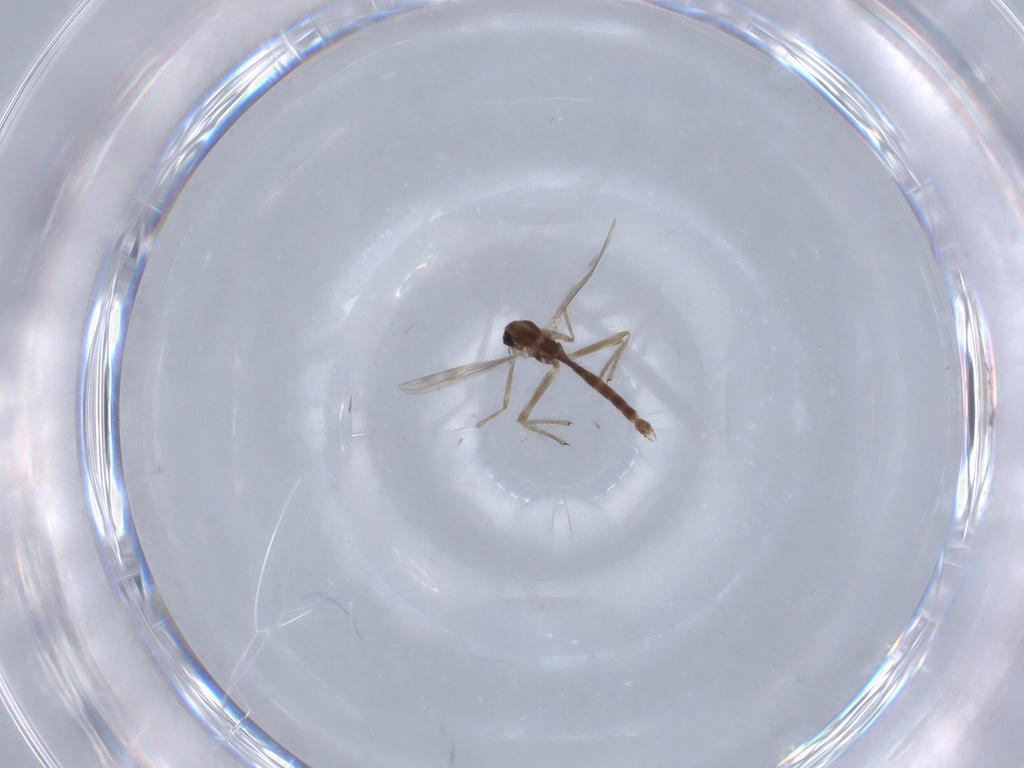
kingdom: Animalia
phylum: Arthropoda
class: Insecta
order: Diptera
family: Chironomidae
